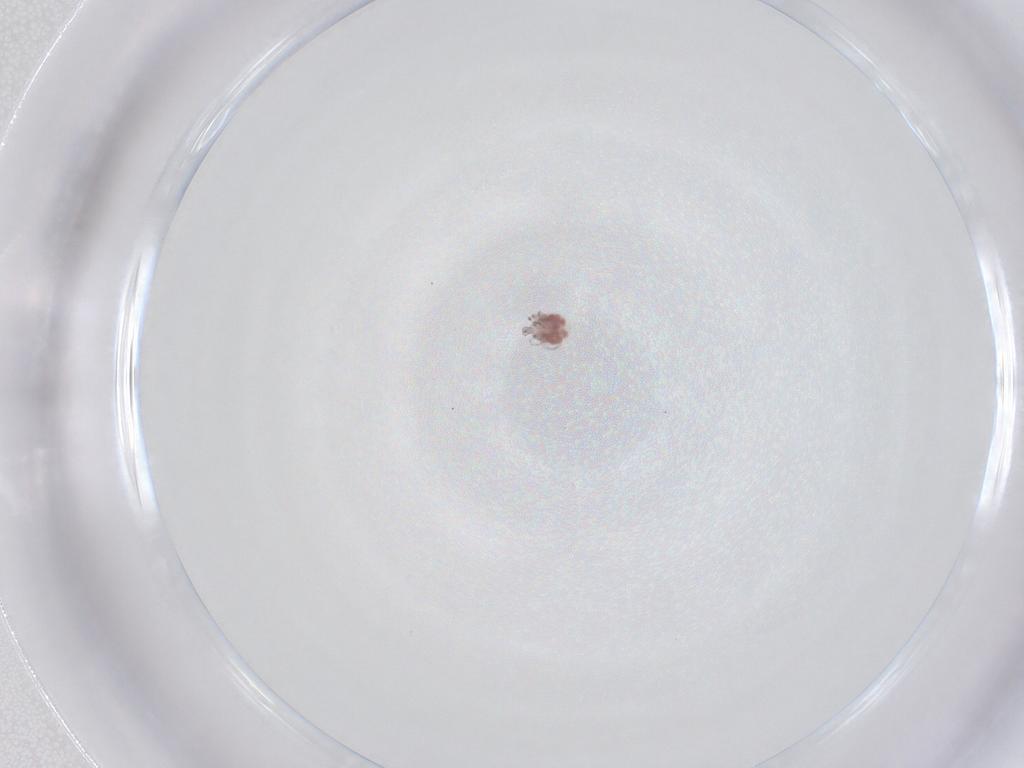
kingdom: Animalia
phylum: Arthropoda
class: Arachnida
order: Trombidiformes
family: Pionidae
